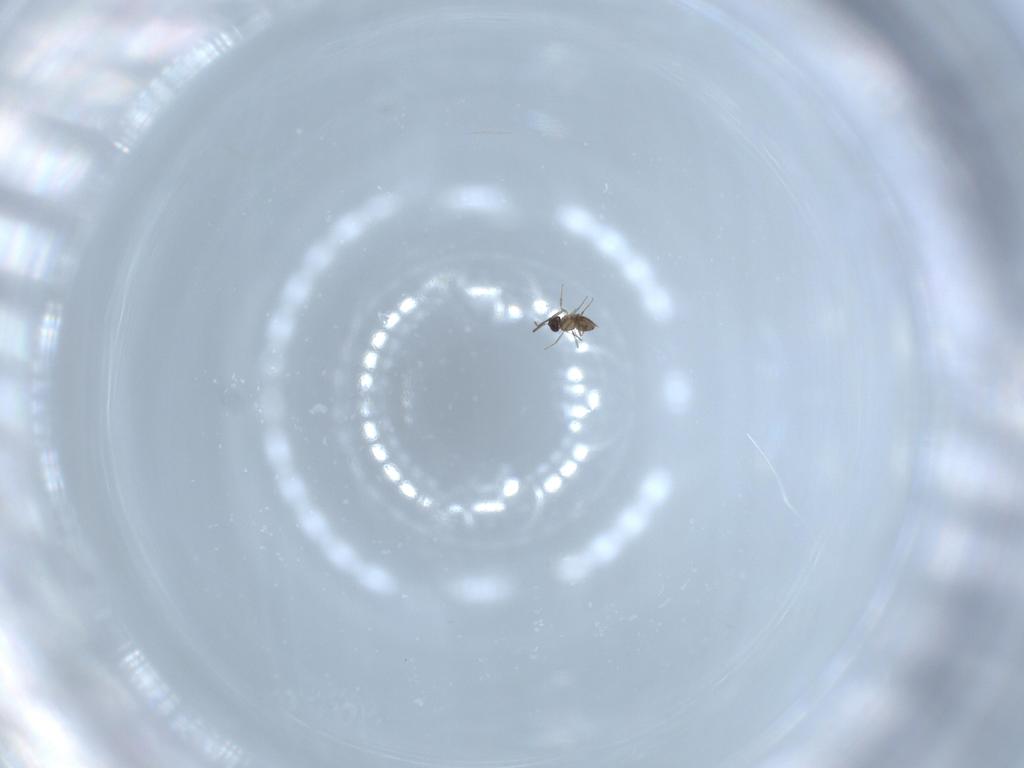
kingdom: Animalia
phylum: Arthropoda
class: Insecta
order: Hymenoptera
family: Mymaridae
